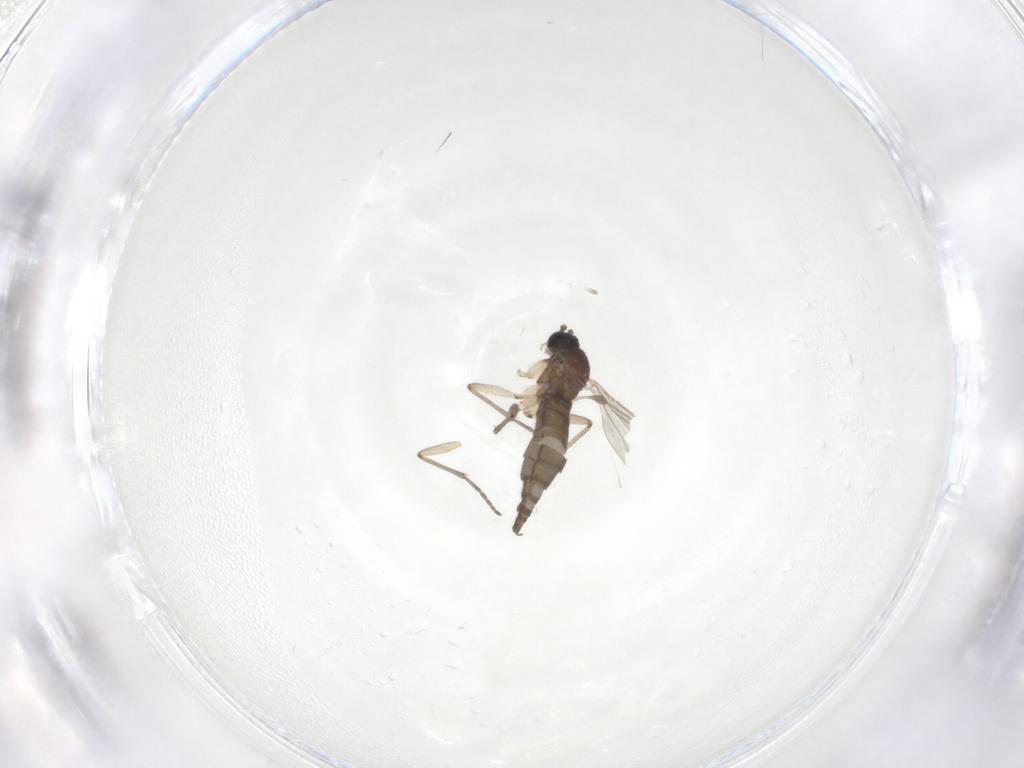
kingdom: Animalia
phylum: Arthropoda
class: Insecta
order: Diptera
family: Sciaridae
